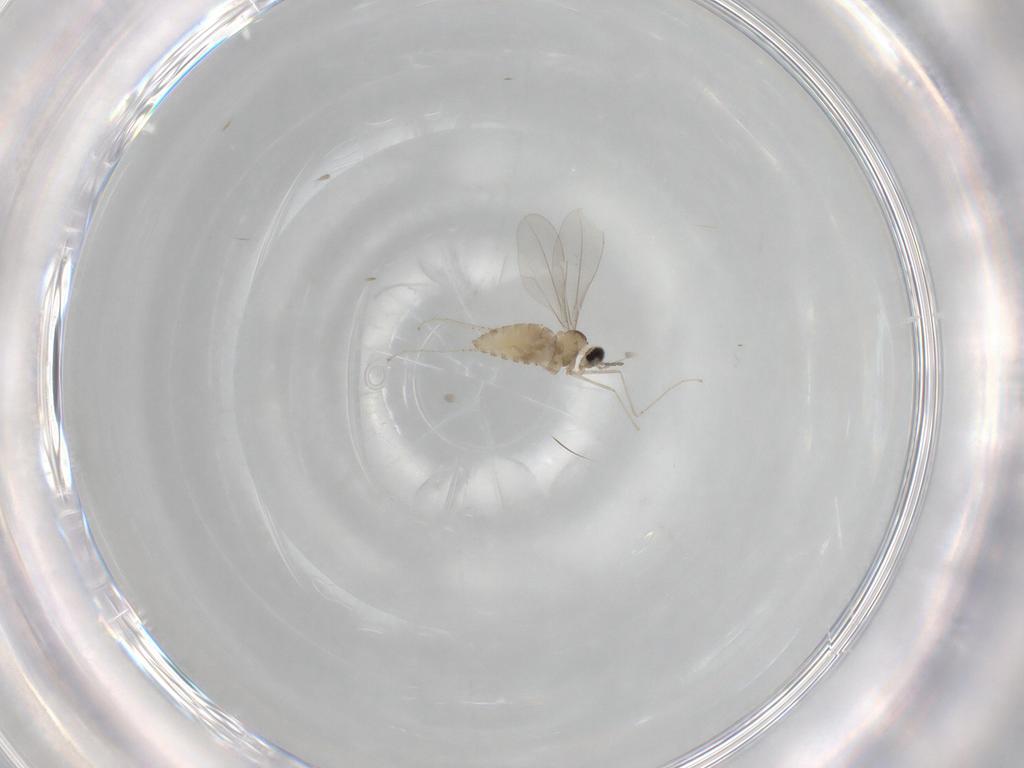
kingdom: Animalia
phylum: Arthropoda
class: Insecta
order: Diptera
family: Cecidomyiidae
